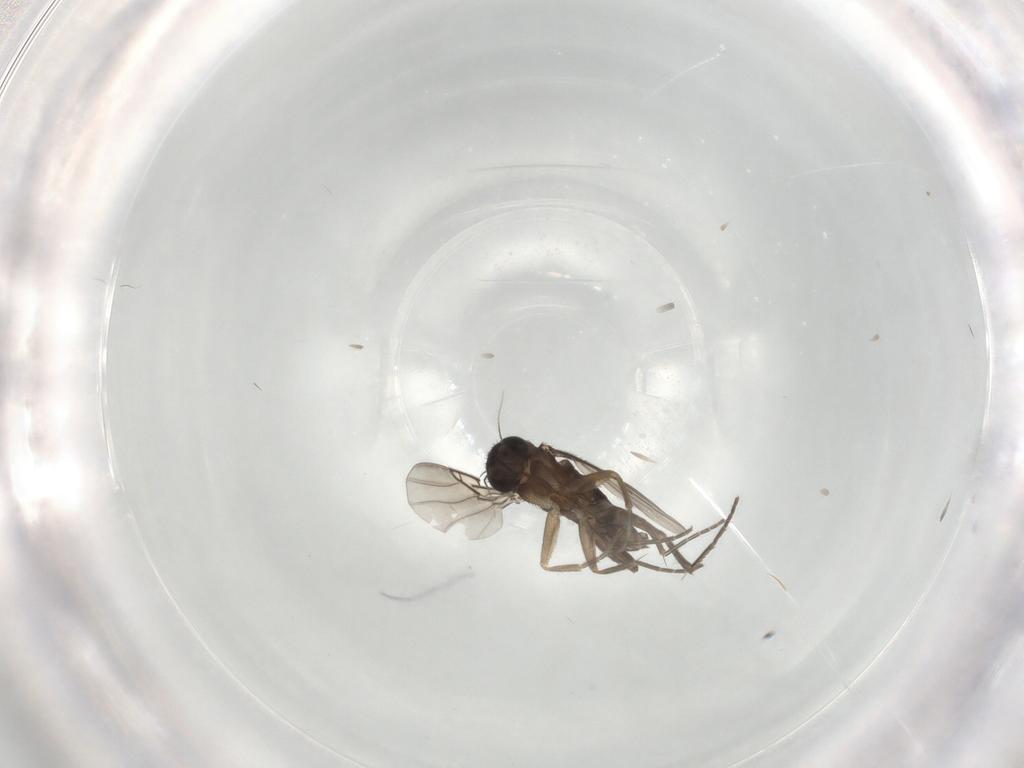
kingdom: Animalia
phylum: Arthropoda
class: Insecta
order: Diptera
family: Phoridae
